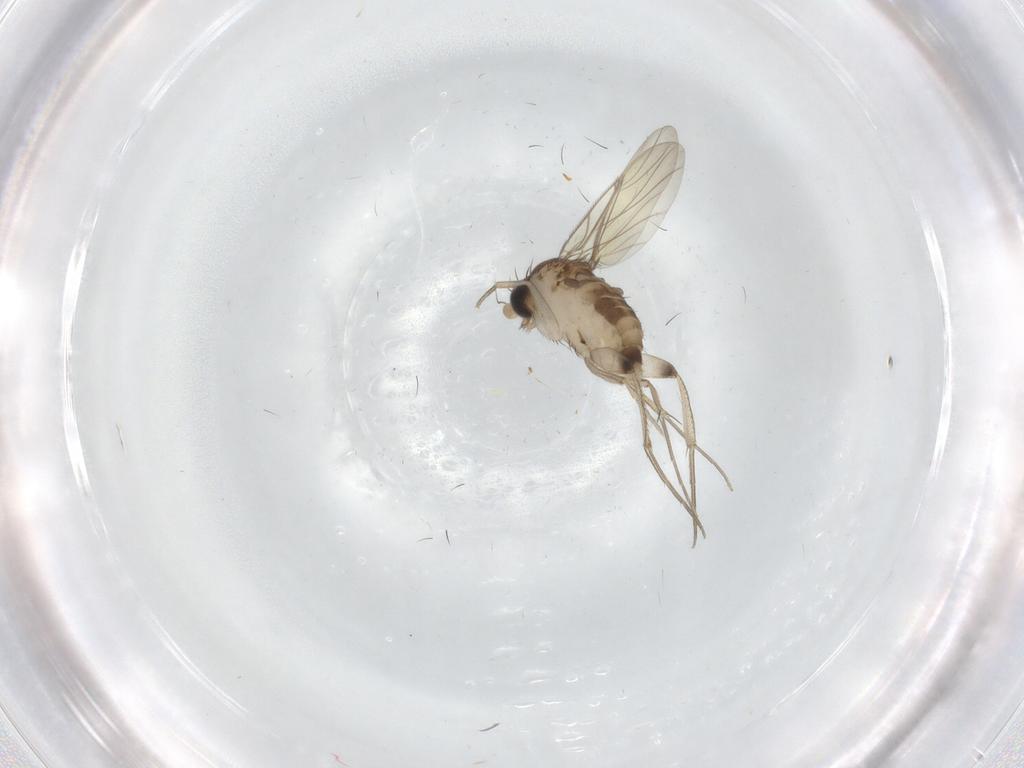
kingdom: Animalia
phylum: Arthropoda
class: Insecta
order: Diptera
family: Phoridae
